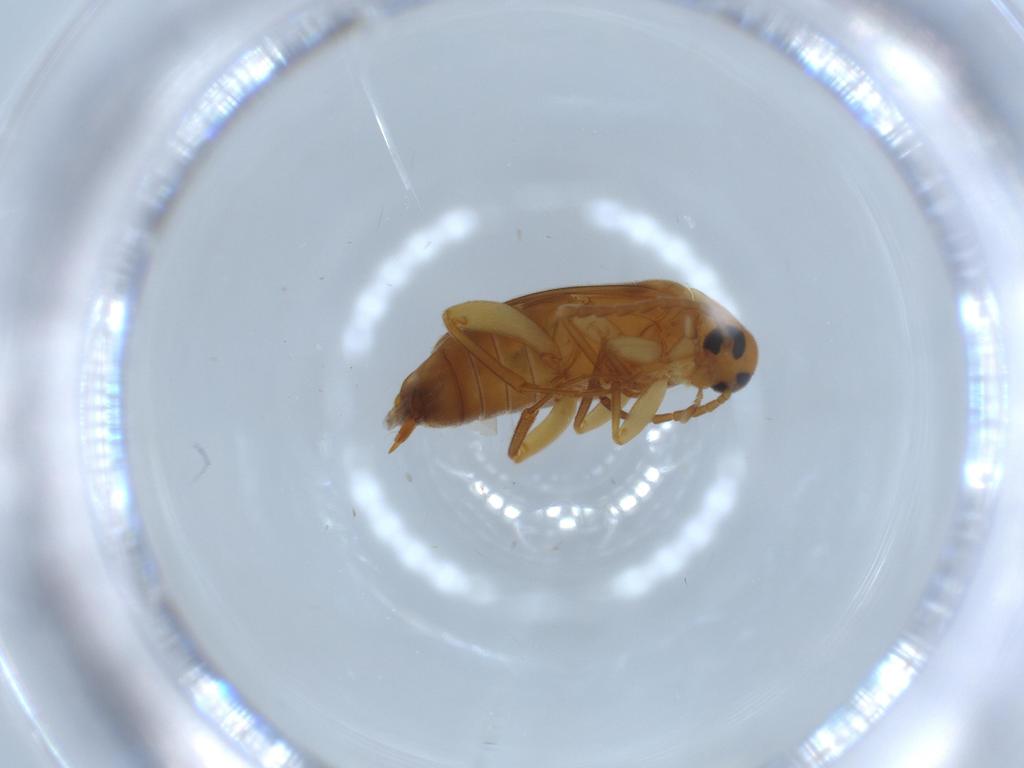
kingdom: Animalia
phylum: Arthropoda
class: Insecta
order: Coleoptera
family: Scraptiidae
